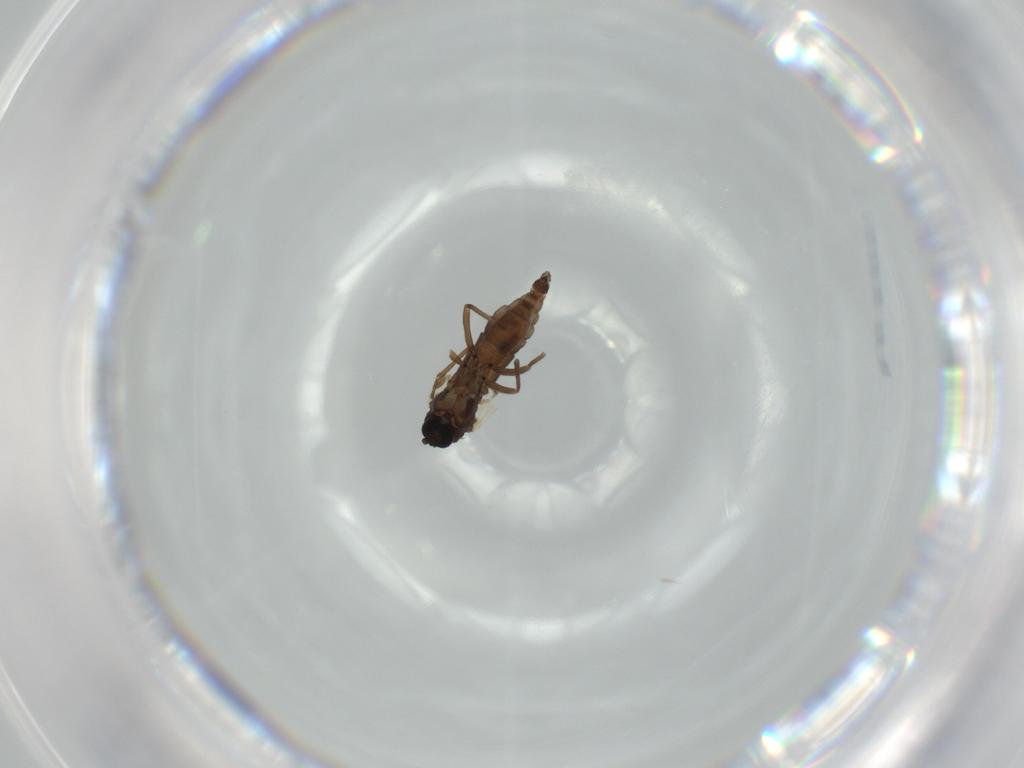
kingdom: Animalia
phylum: Arthropoda
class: Insecta
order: Diptera
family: Syrphidae
